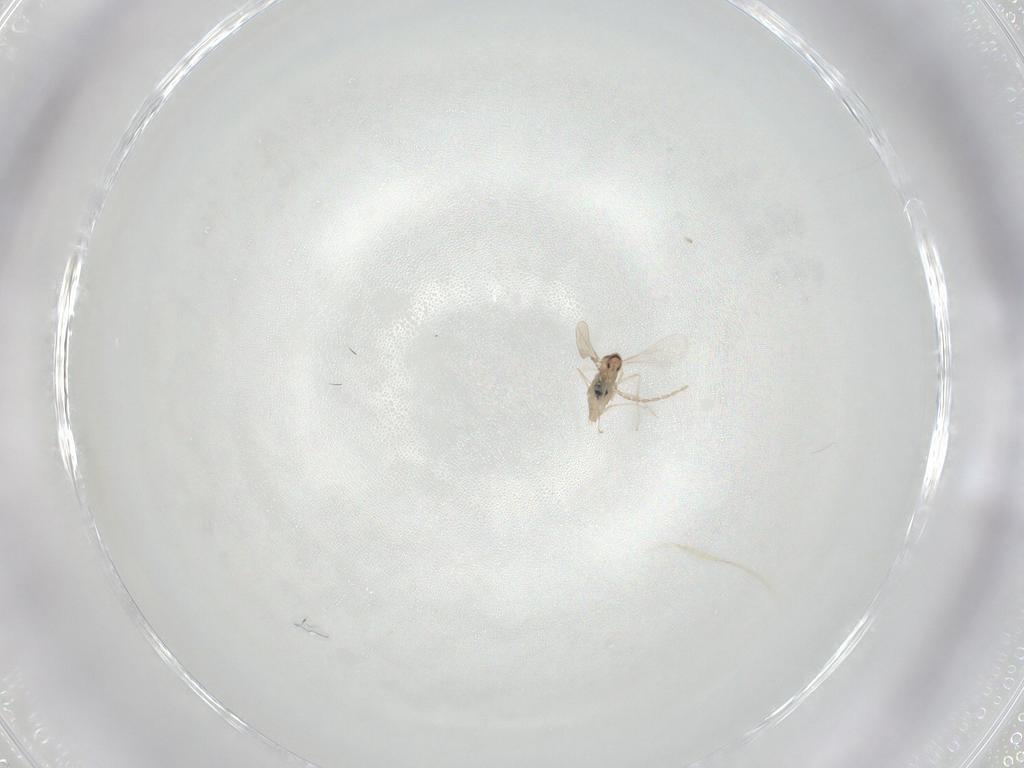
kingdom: Animalia
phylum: Arthropoda
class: Insecta
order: Diptera
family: Cecidomyiidae
